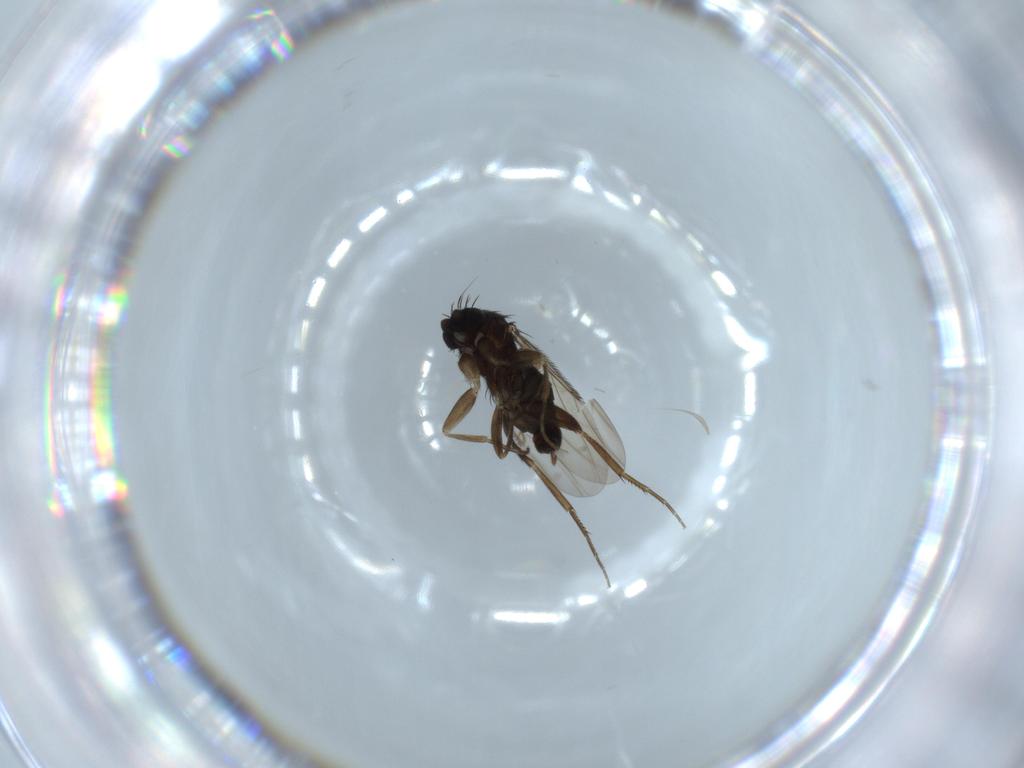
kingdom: Animalia
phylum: Arthropoda
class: Insecta
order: Diptera
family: Phoridae
